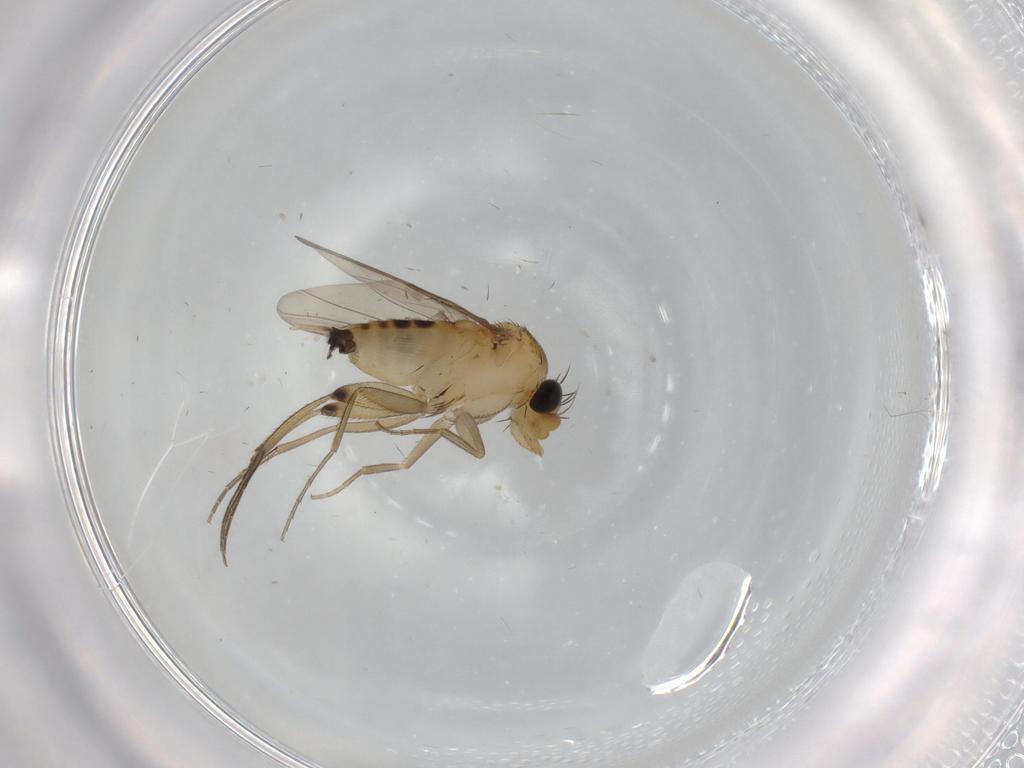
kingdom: Animalia
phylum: Arthropoda
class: Insecta
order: Diptera
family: Phoridae
